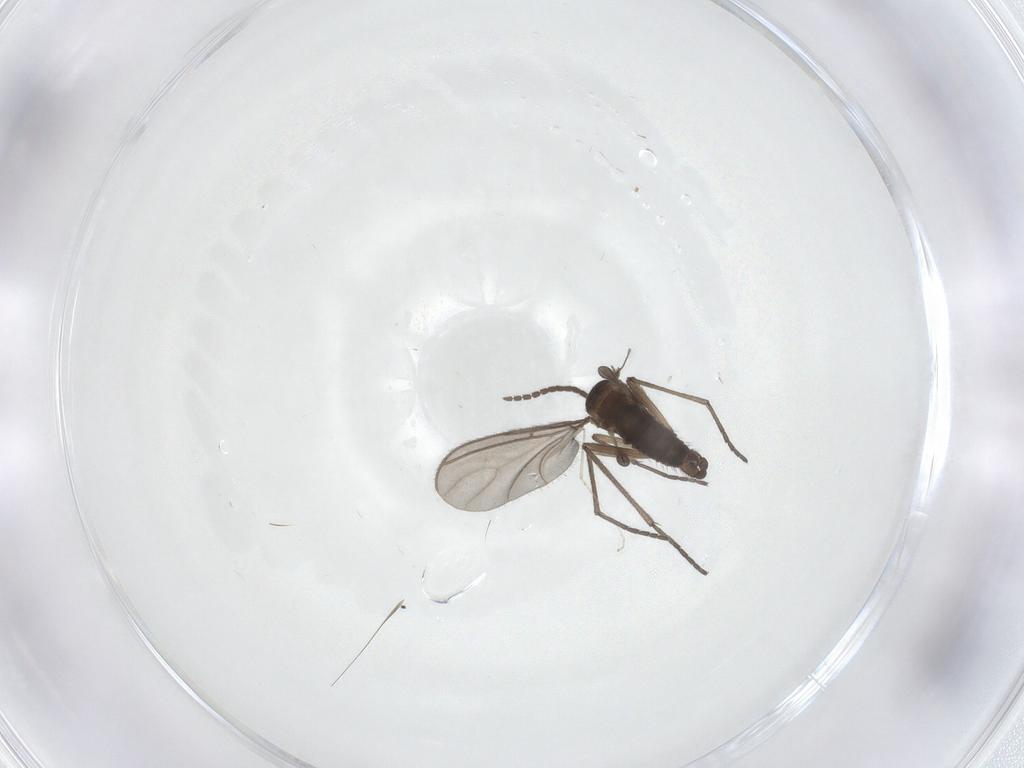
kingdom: Animalia
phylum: Arthropoda
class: Insecta
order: Diptera
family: Sciaridae
